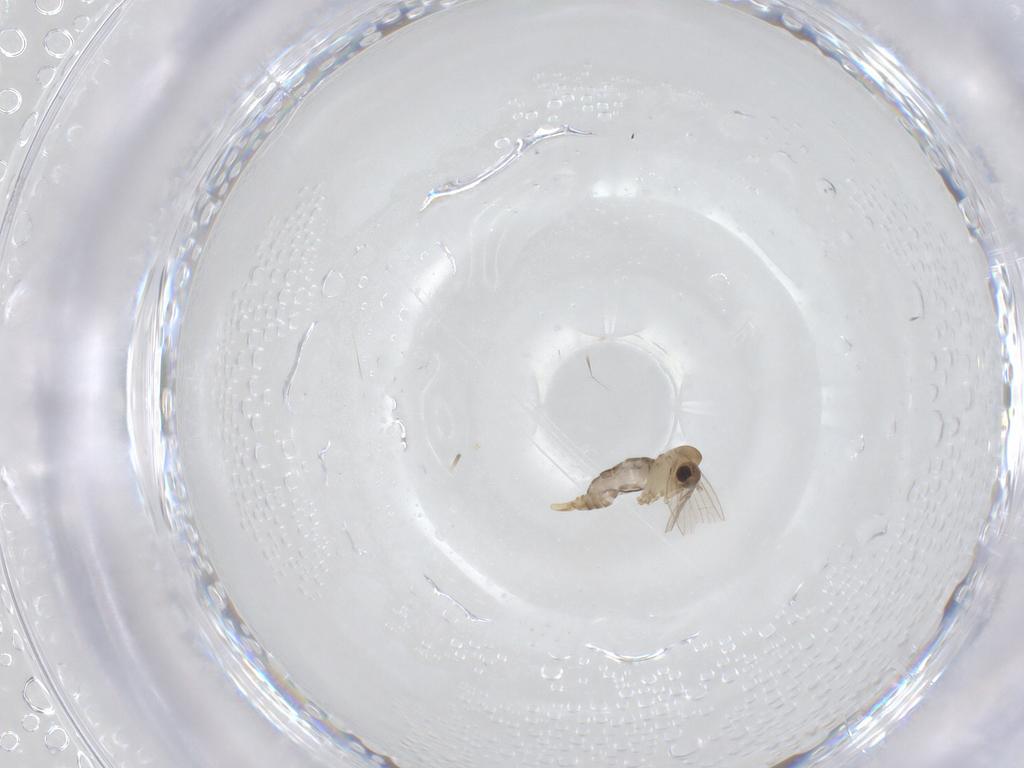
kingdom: Animalia
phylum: Arthropoda
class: Insecta
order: Diptera
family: Psychodidae
